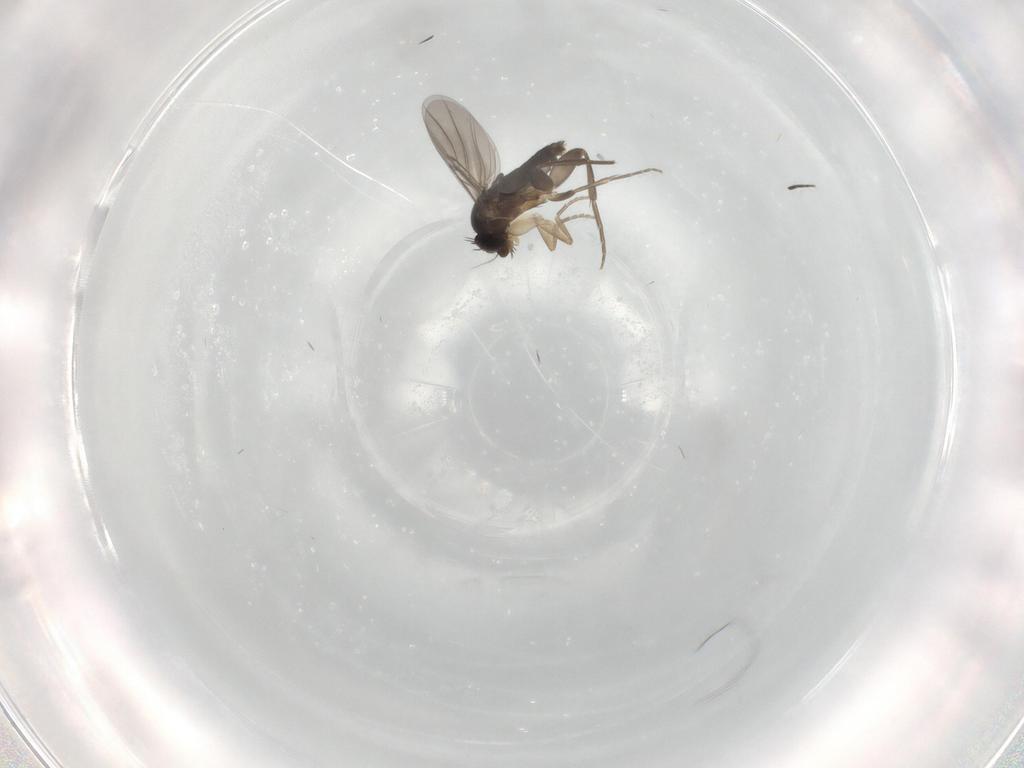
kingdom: Animalia
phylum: Arthropoda
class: Insecta
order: Diptera
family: Phoridae
